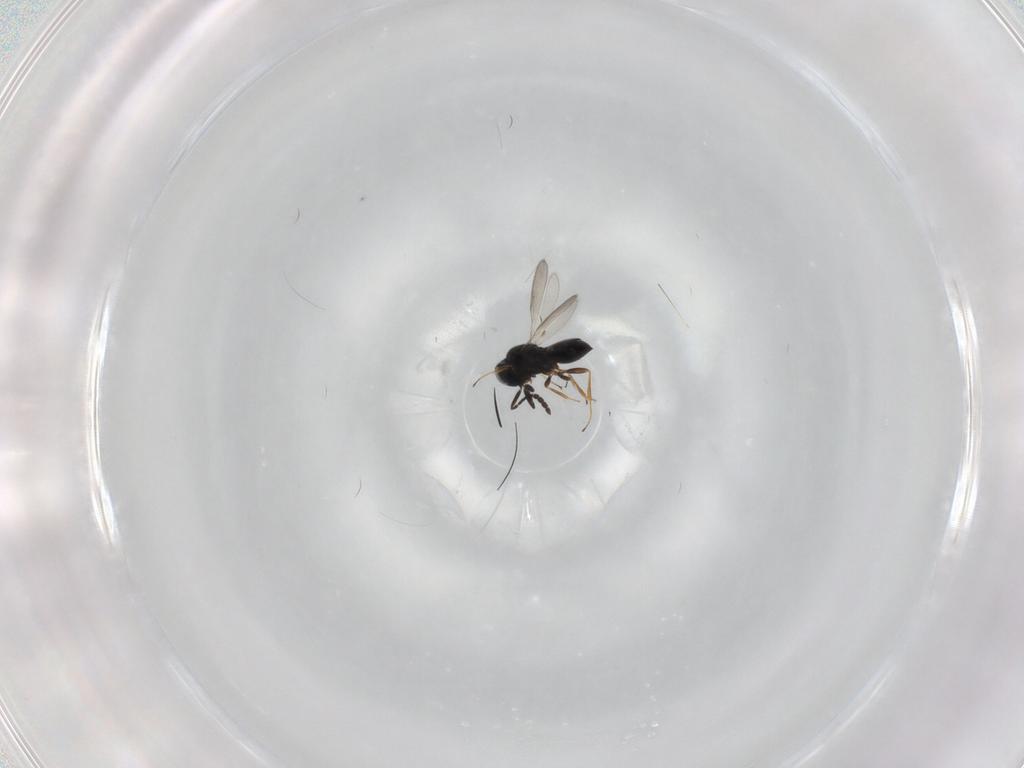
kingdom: Animalia
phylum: Arthropoda
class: Insecta
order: Hymenoptera
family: Scelionidae
